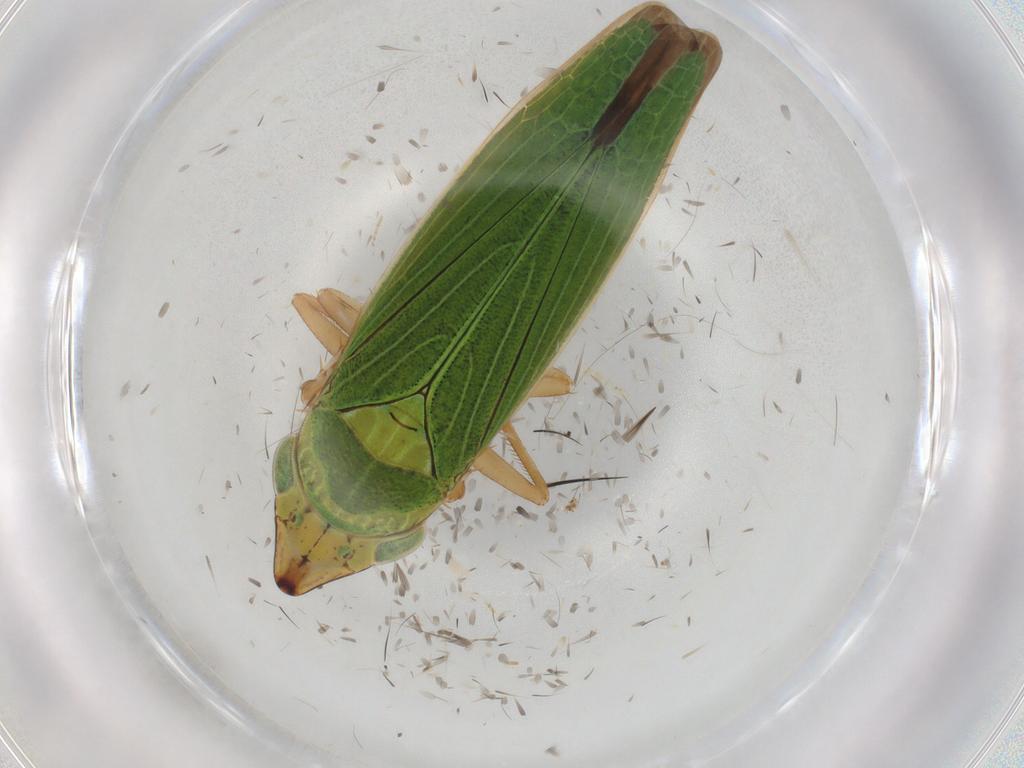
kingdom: Animalia
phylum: Arthropoda
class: Insecta
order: Hemiptera
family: Cicadellidae
